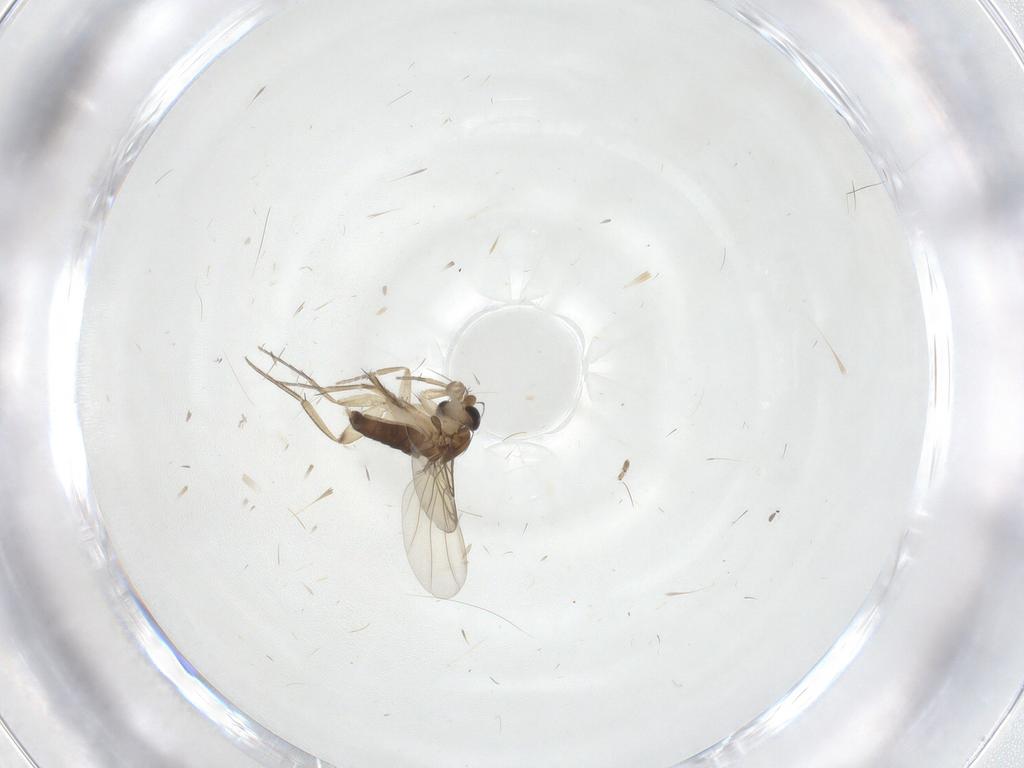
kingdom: Animalia
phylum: Arthropoda
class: Insecta
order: Diptera
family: Phoridae
